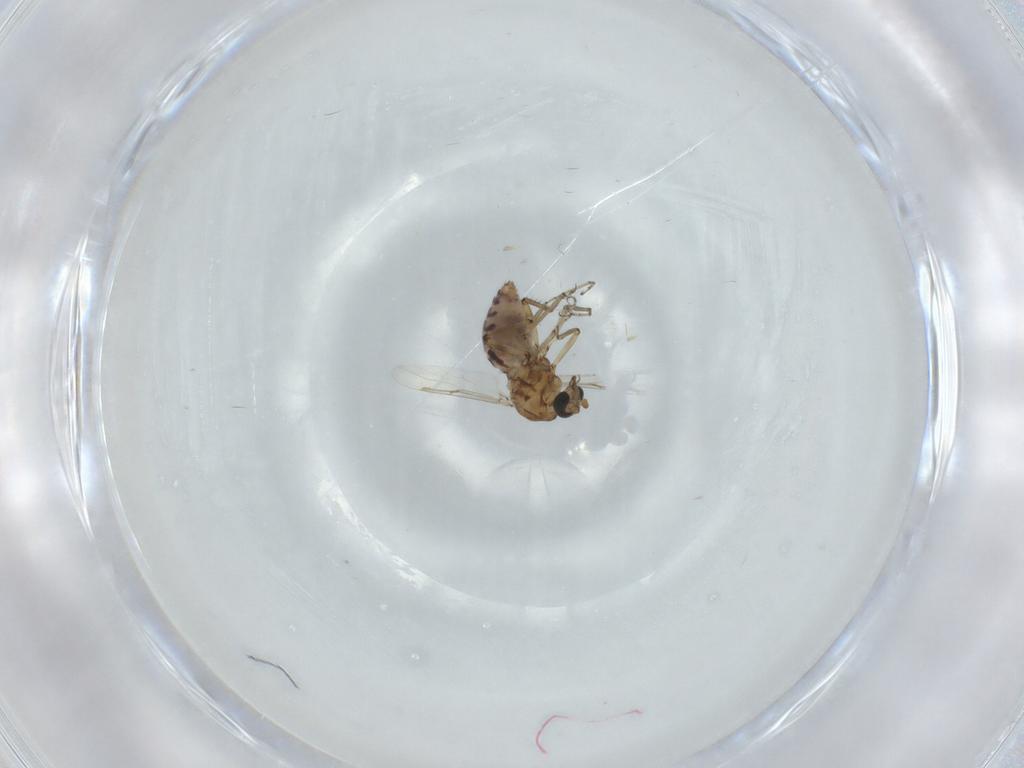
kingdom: Animalia
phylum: Arthropoda
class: Insecta
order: Diptera
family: Ceratopogonidae
